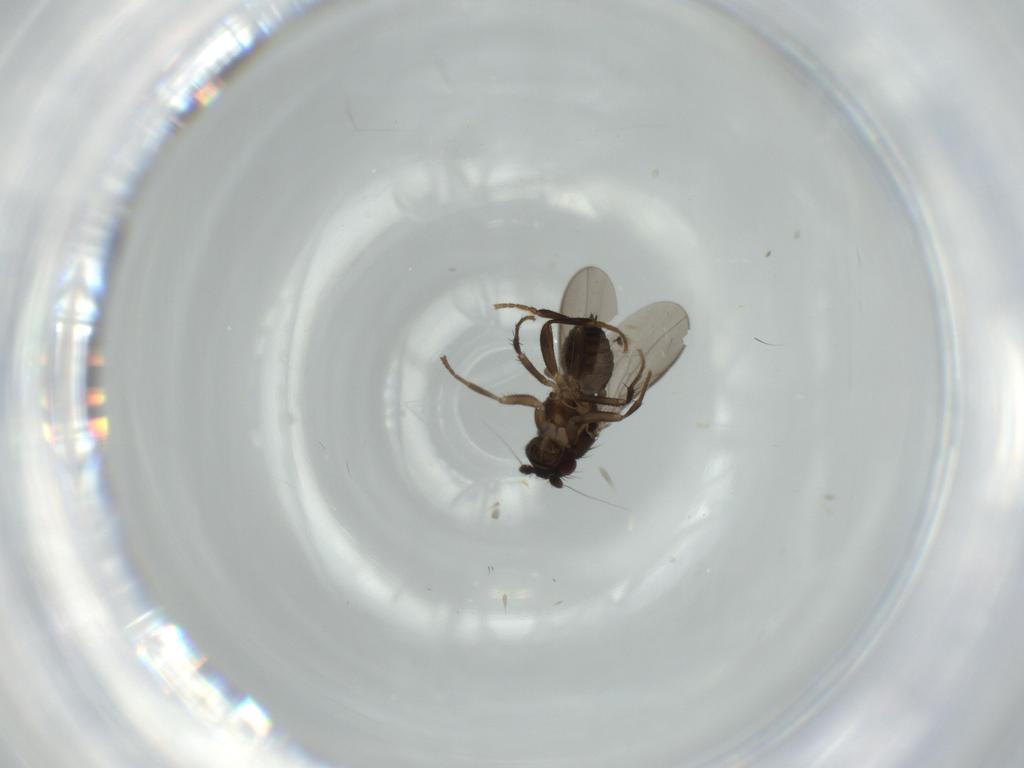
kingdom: Animalia
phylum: Arthropoda
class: Insecta
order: Diptera
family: Sphaeroceridae
